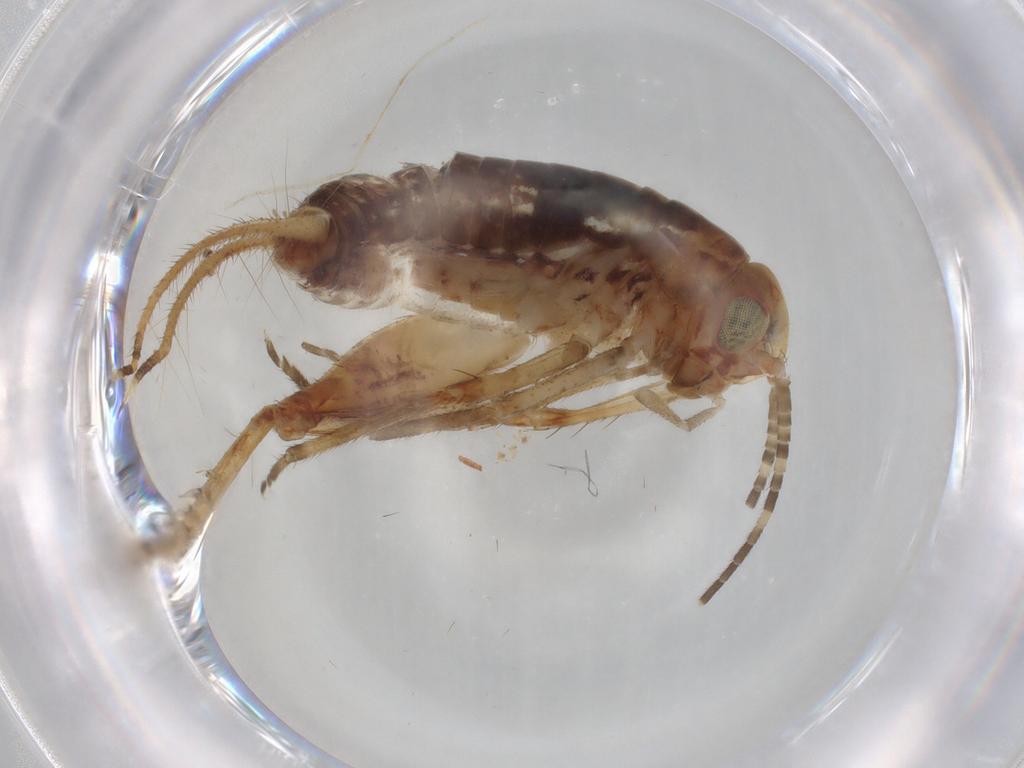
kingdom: Animalia
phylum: Arthropoda
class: Insecta
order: Orthoptera
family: Gryllidae
